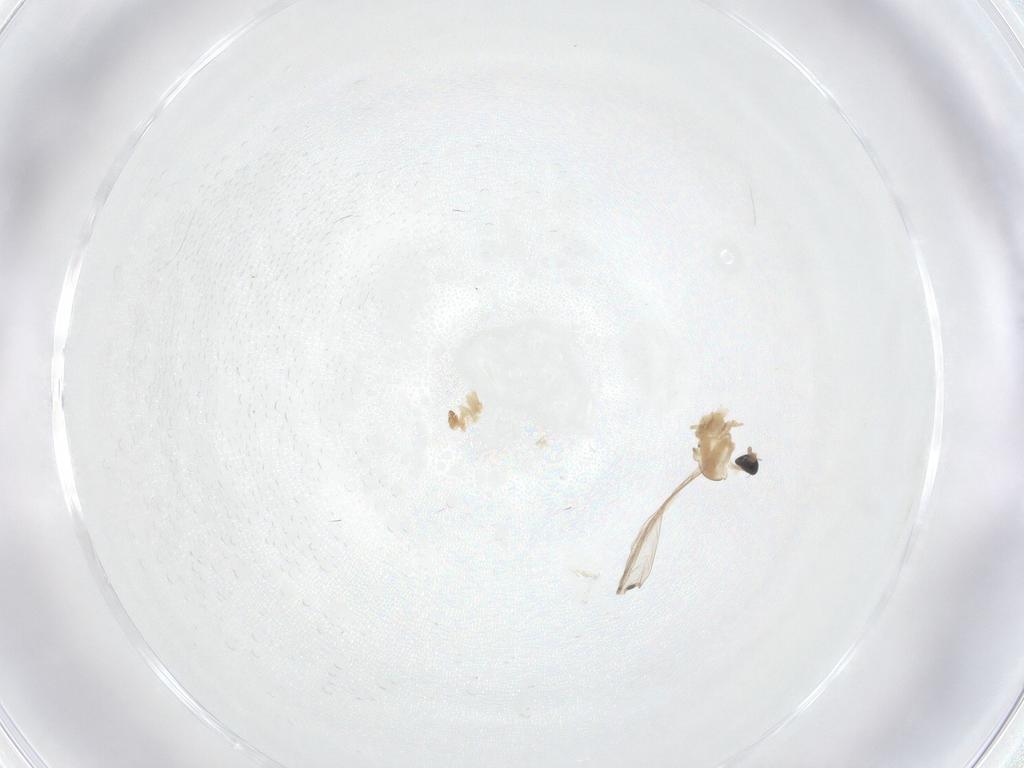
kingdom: Animalia
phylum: Arthropoda
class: Insecta
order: Diptera
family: Cecidomyiidae
